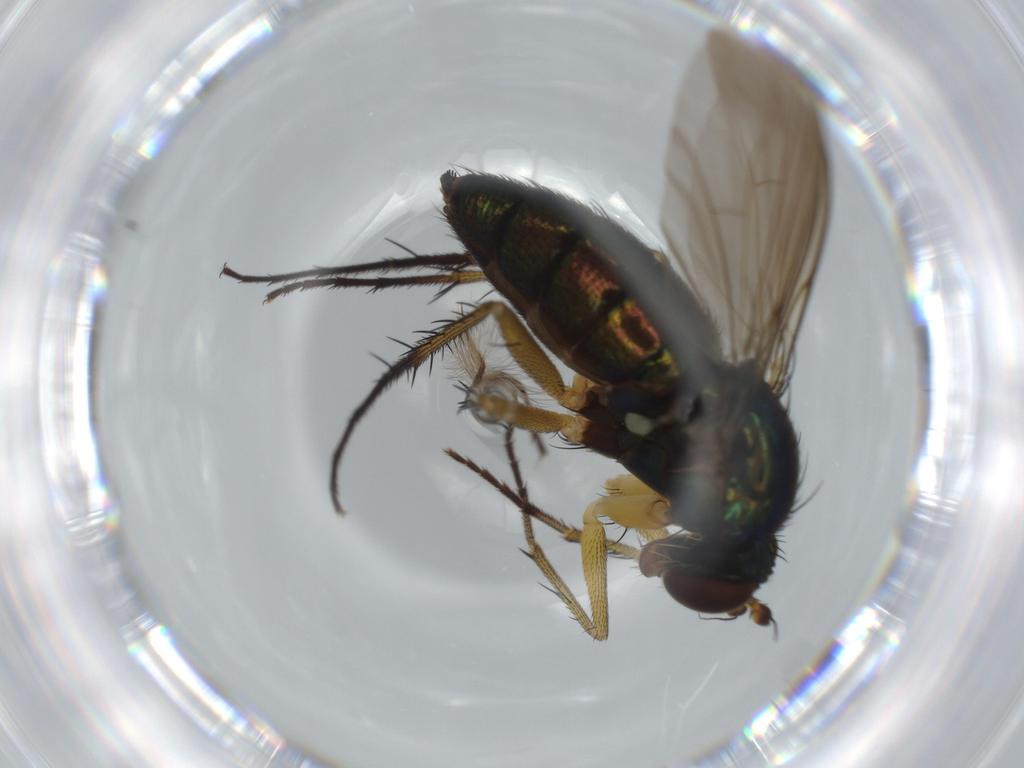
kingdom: Animalia
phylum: Arthropoda
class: Insecta
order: Diptera
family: Dolichopodidae
